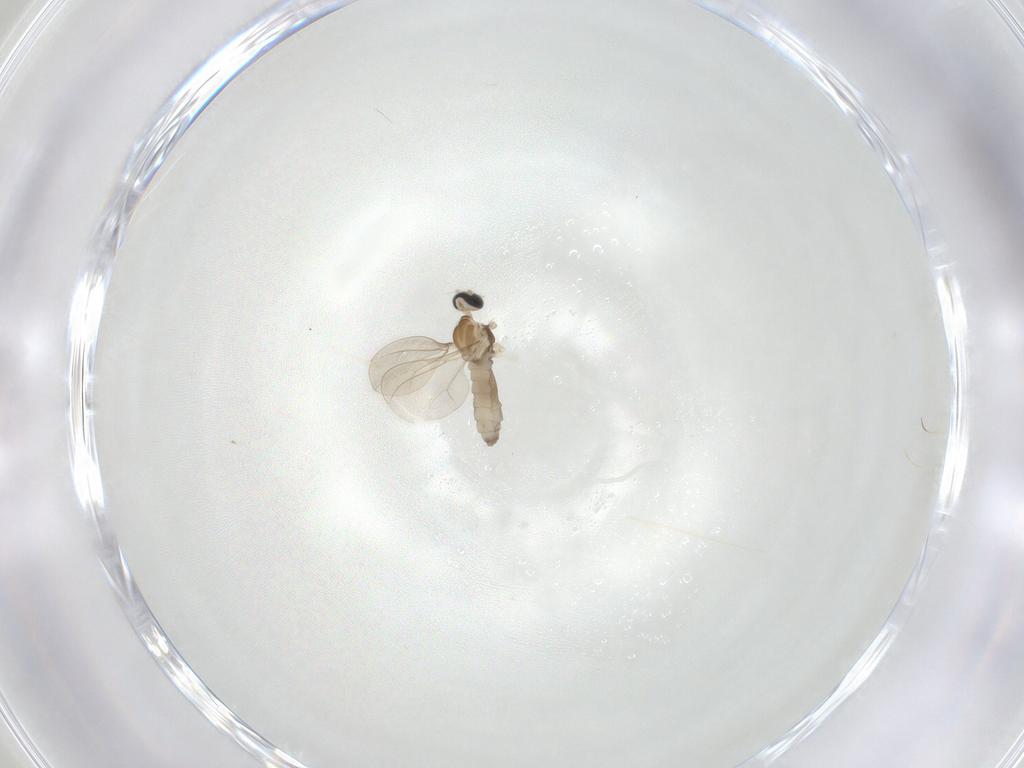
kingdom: Animalia
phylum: Arthropoda
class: Insecta
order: Diptera
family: Cecidomyiidae
